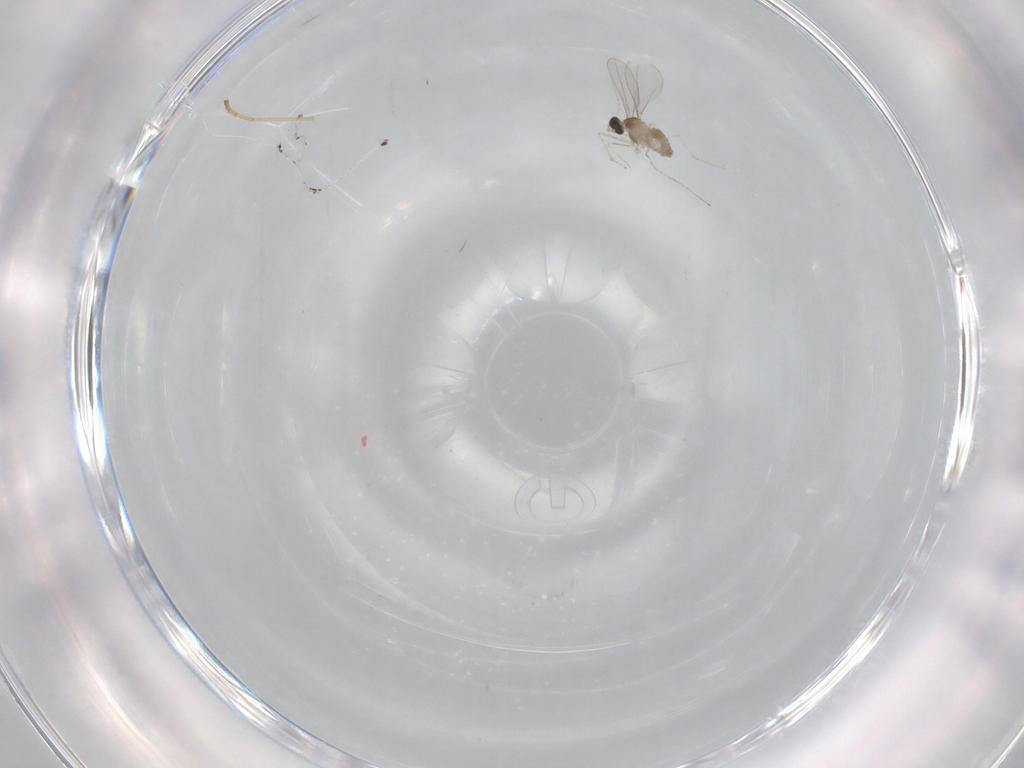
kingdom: Animalia
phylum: Arthropoda
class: Insecta
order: Diptera
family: Cecidomyiidae
